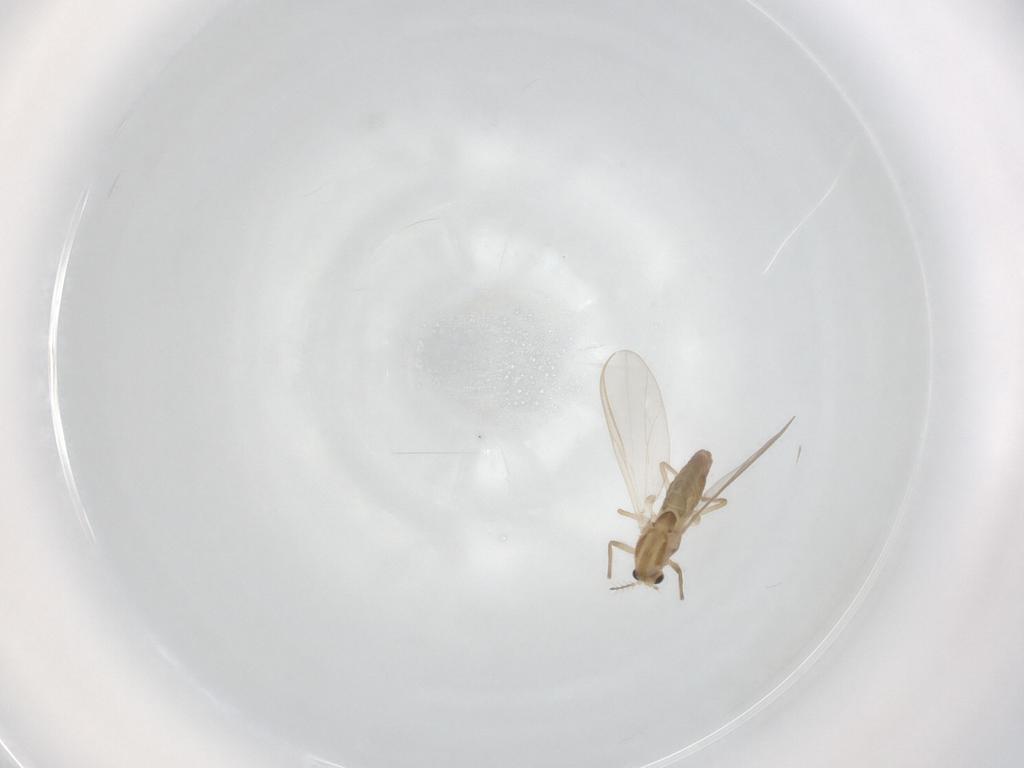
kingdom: Animalia
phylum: Arthropoda
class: Insecta
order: Diptera
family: Chironomidae
